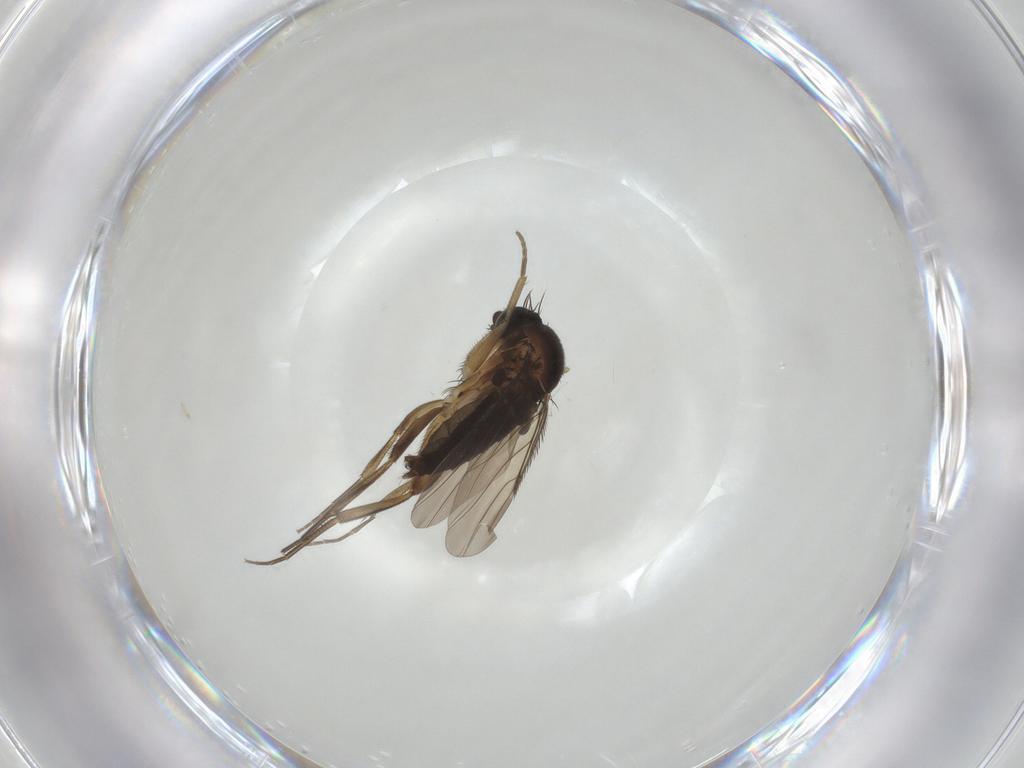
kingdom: Animalia
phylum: Arthropoda
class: Insecta
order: Diptera
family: Phoridae
